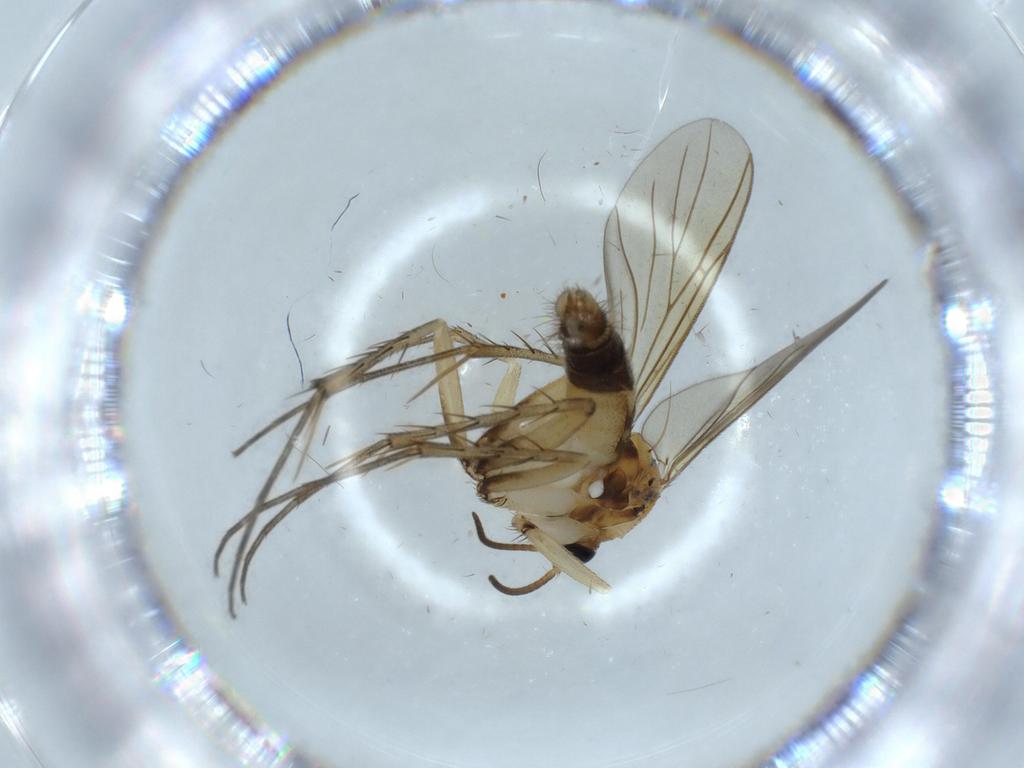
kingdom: Animalia
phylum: Arthropoda
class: Insecta
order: Diptera
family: Mycetophilidae
